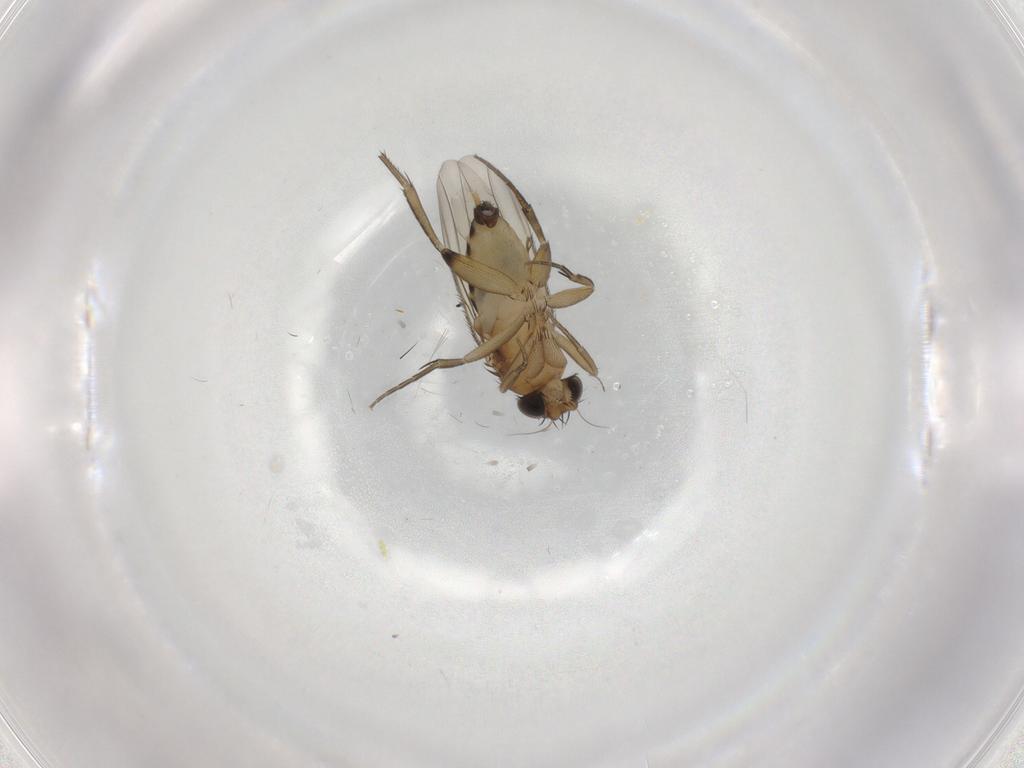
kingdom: Animalia
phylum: Arthropoda
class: Insecta
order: Diptera
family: Phoridae
